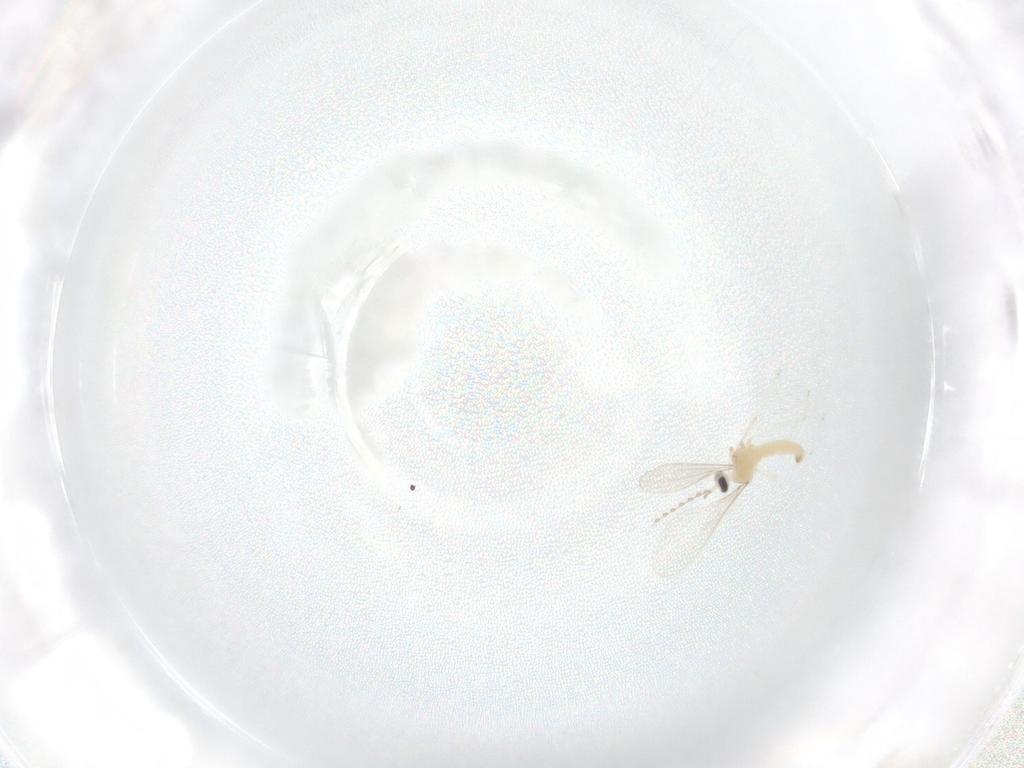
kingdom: Animalia
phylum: Arthropoda
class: Insecta
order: Diptera
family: Cecidomyiidae
